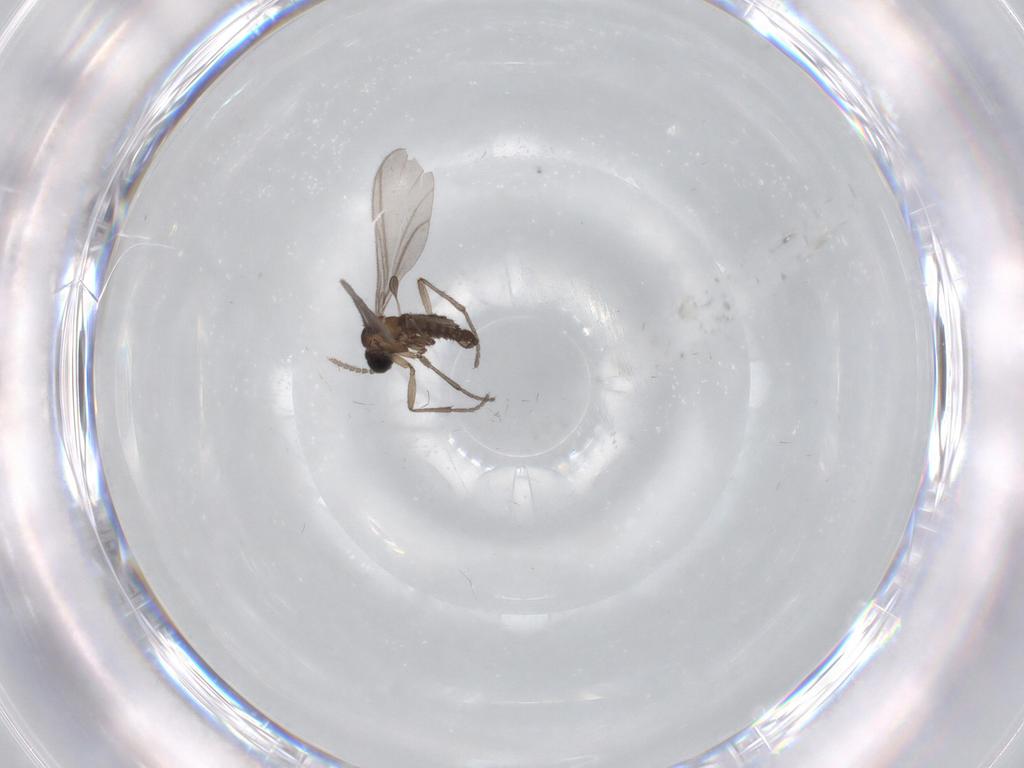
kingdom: Animalia
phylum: Arthropoda
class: Insecta
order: Diptera
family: Sciaridae
